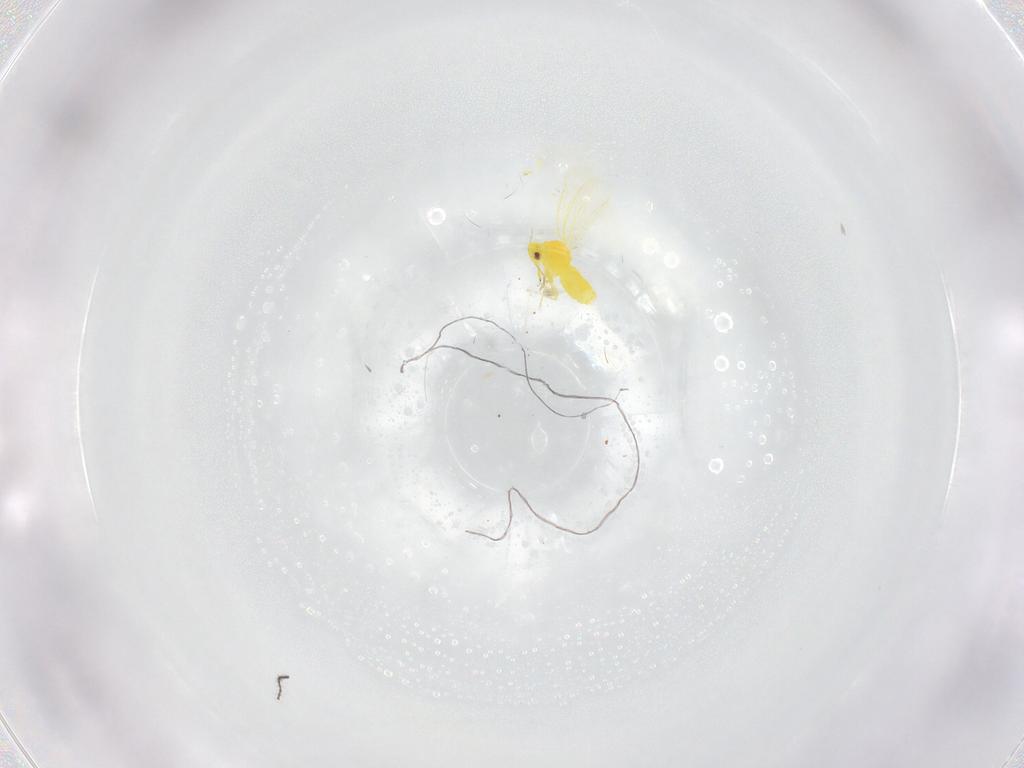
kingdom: Animalia
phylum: Arthropoda
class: Insecta
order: Hemiptera
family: Aleyrodidae
